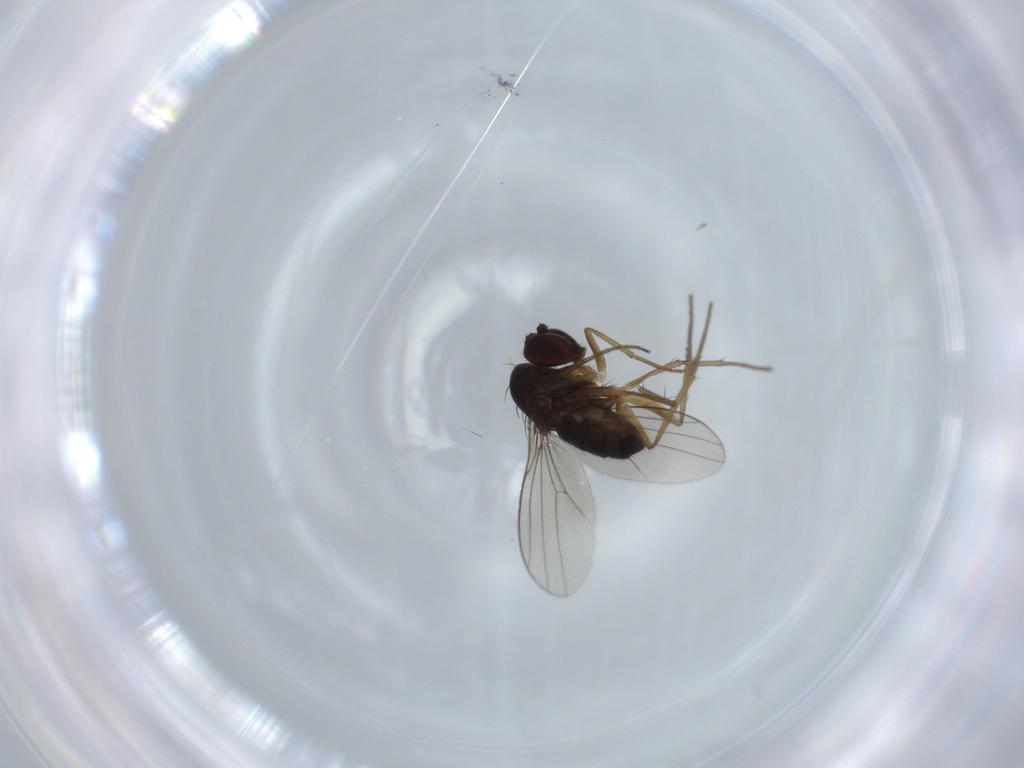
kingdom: Animalia
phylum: Arthropoda
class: Insecta
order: Diptera
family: Dolichopodidae
